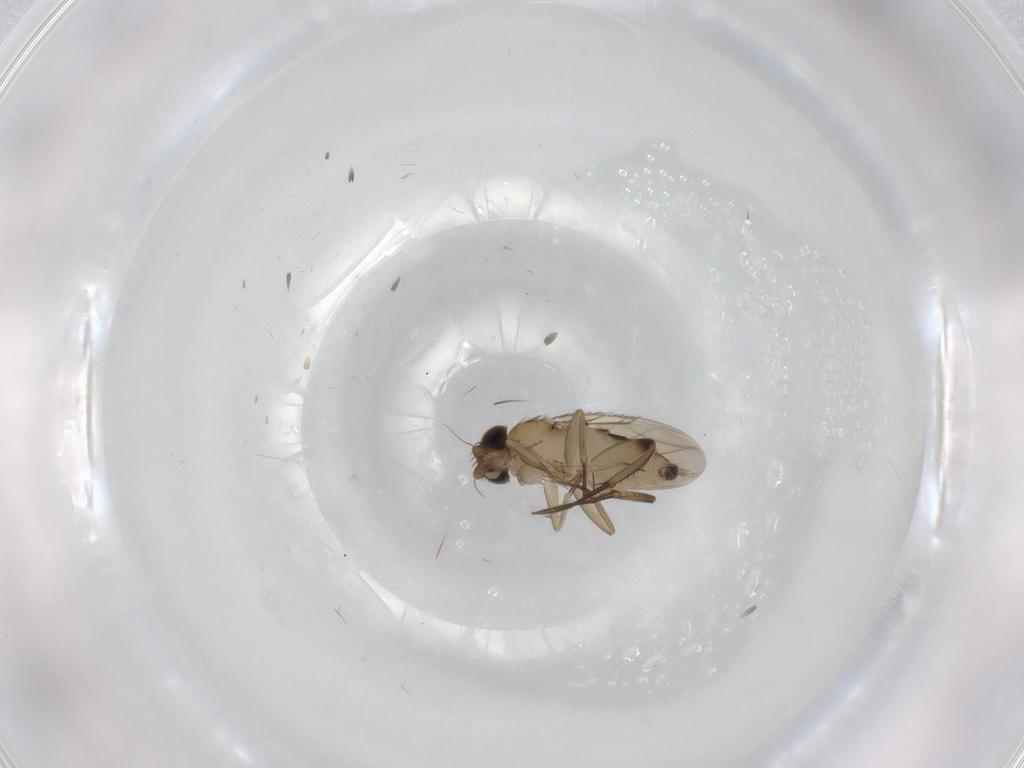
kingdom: Animalia
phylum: Arthropoda
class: Insecta
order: Diptera
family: Phoridae
